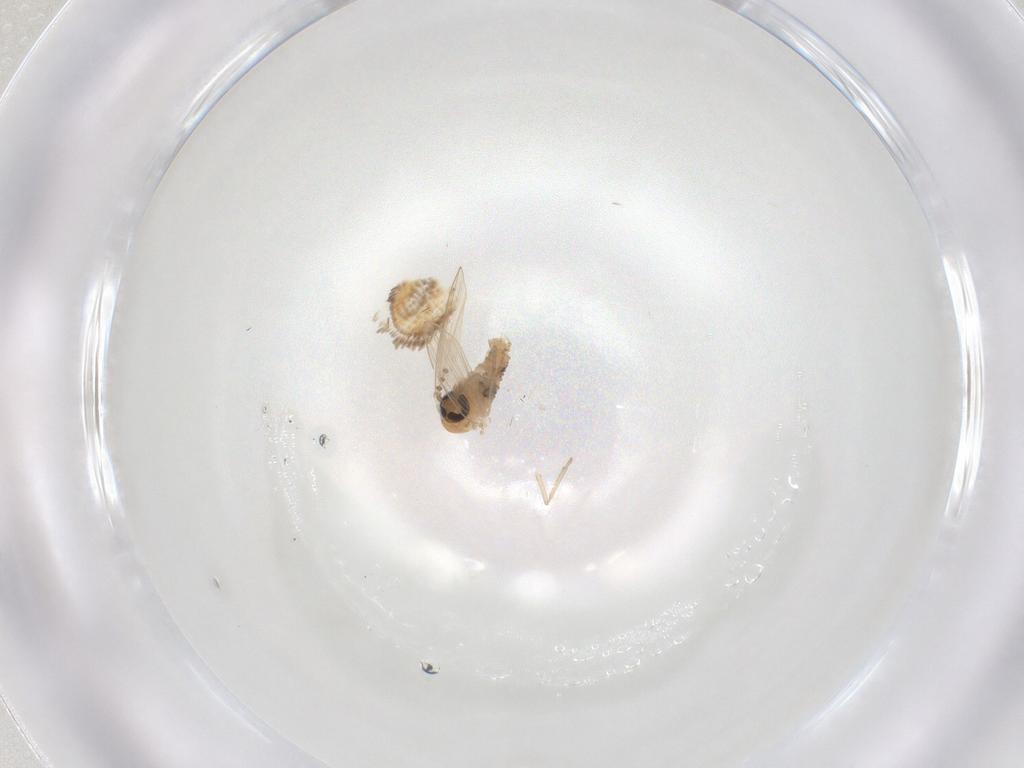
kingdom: Animalia
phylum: Arthropoda
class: Insecta
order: Diptera
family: Psychodidae
